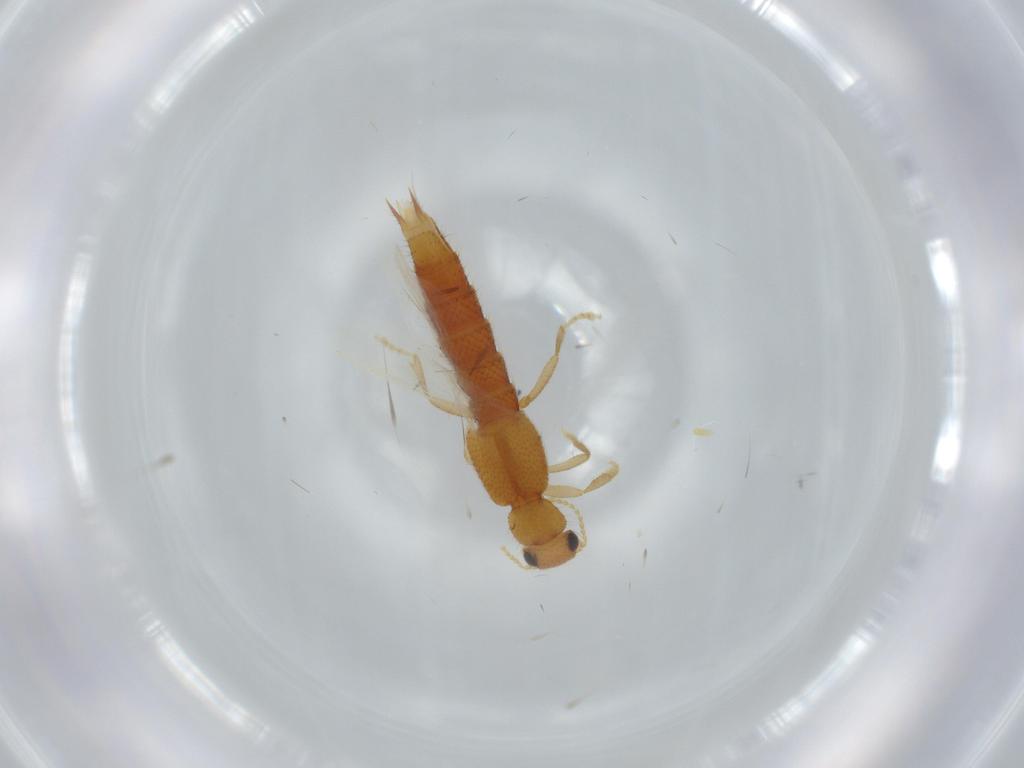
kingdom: Animalia
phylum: Arthropoda
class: Insecta
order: Coleoptera
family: Staphylinidae
